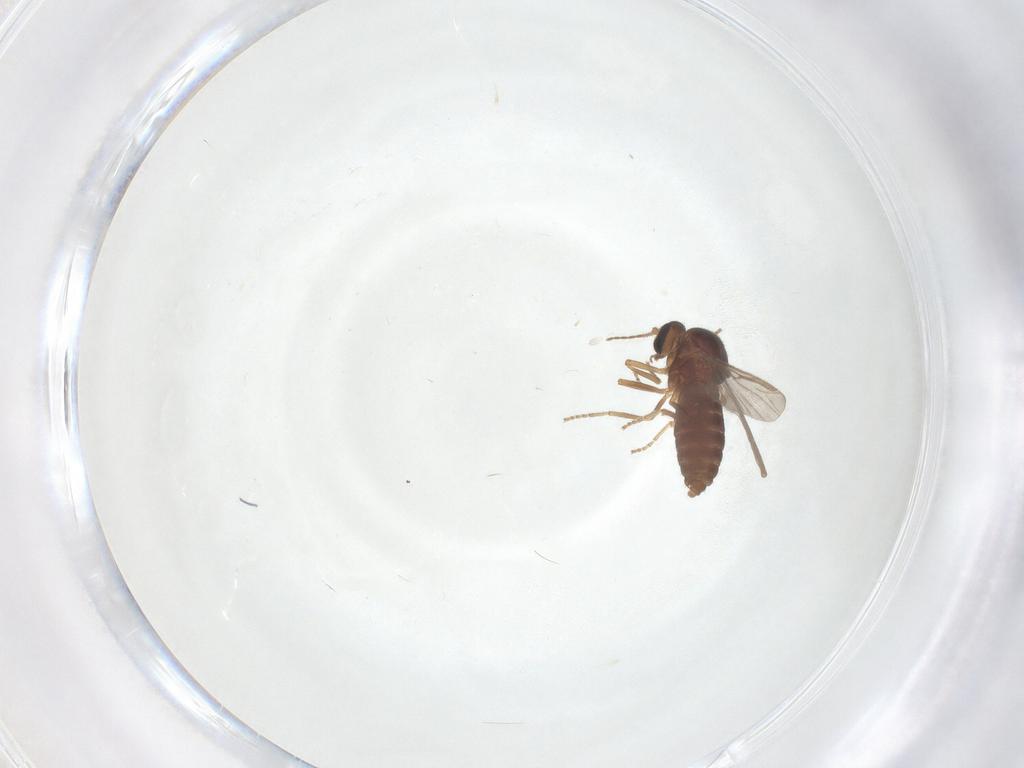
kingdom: Animalia
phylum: Arthropoda
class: Insecta
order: Diptera
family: Ceratopogonidae
